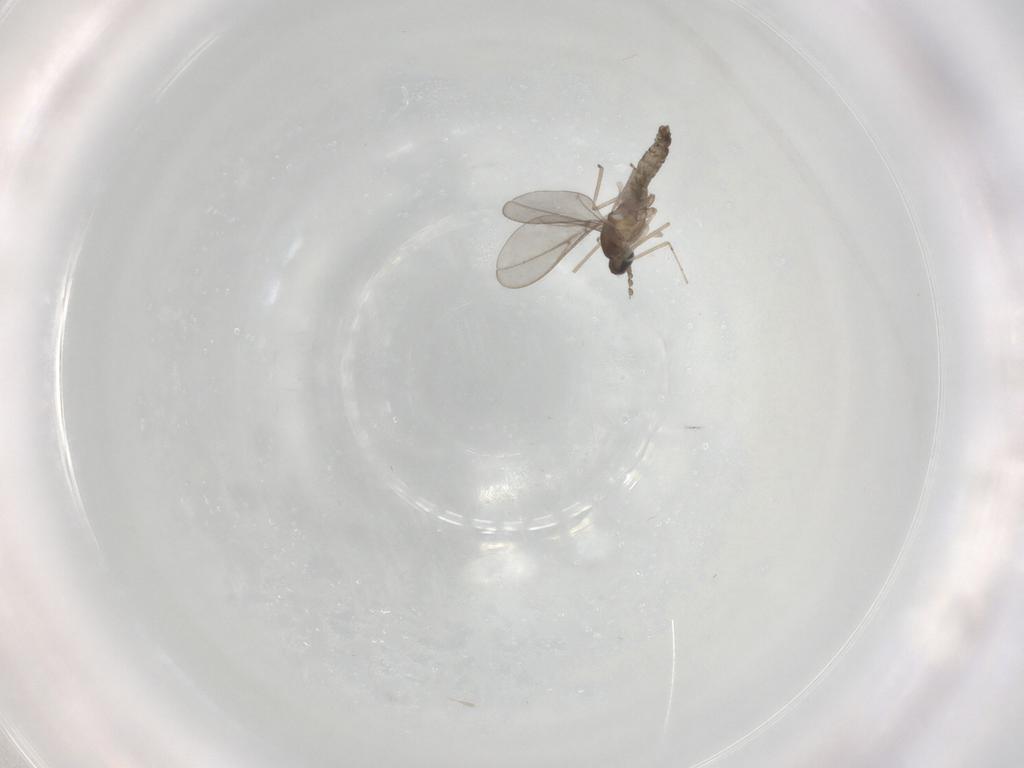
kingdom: Animalia
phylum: Arthropoda
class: Insecta
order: Diptera
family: Cecidomyiidae
